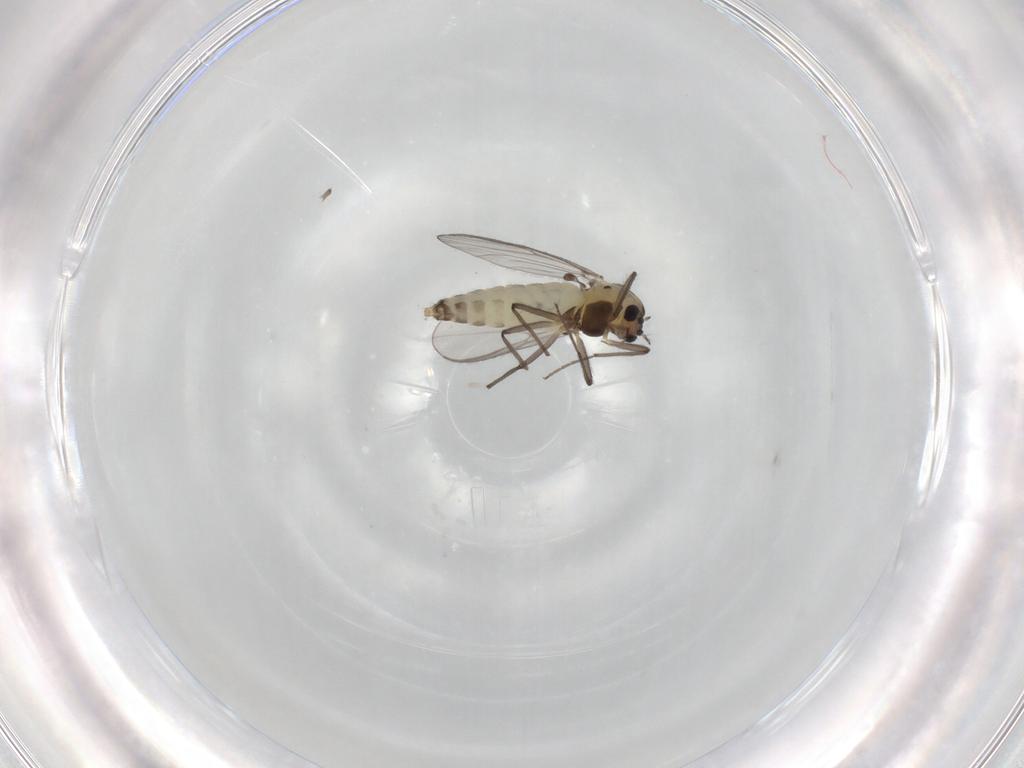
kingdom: Animalia
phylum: Arthropoda
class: Insecta
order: Diptera
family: Chironomidae
